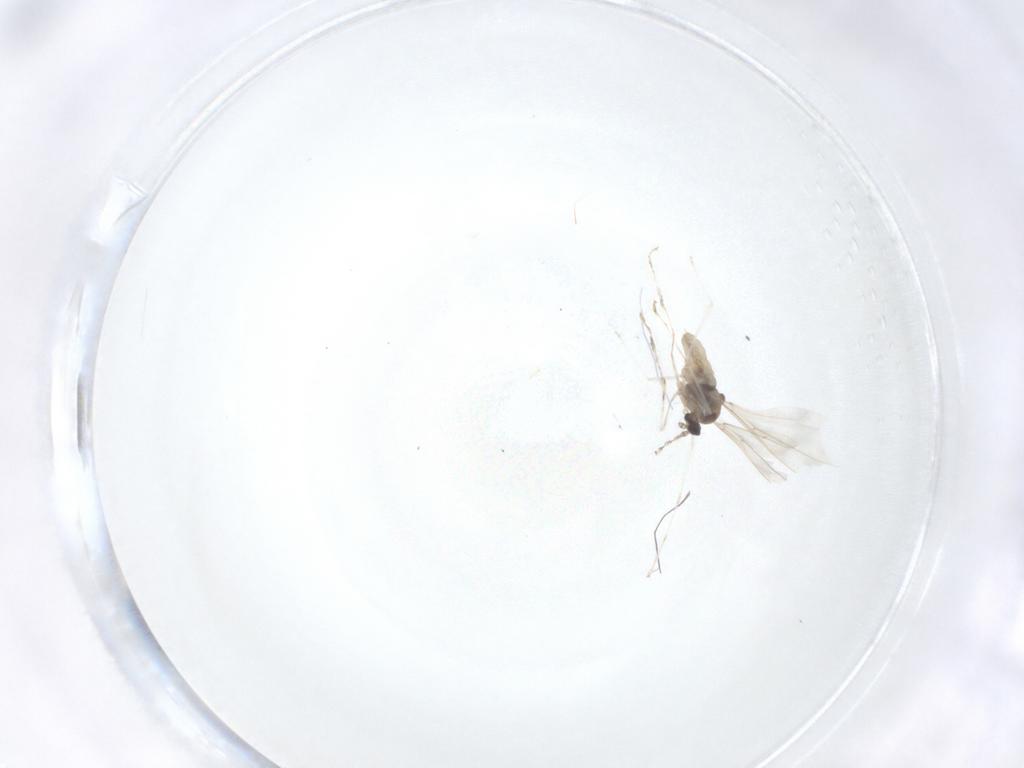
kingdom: Animalia
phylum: Arthropoda
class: Insecta
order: Diptera
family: Cecidomyiidae
